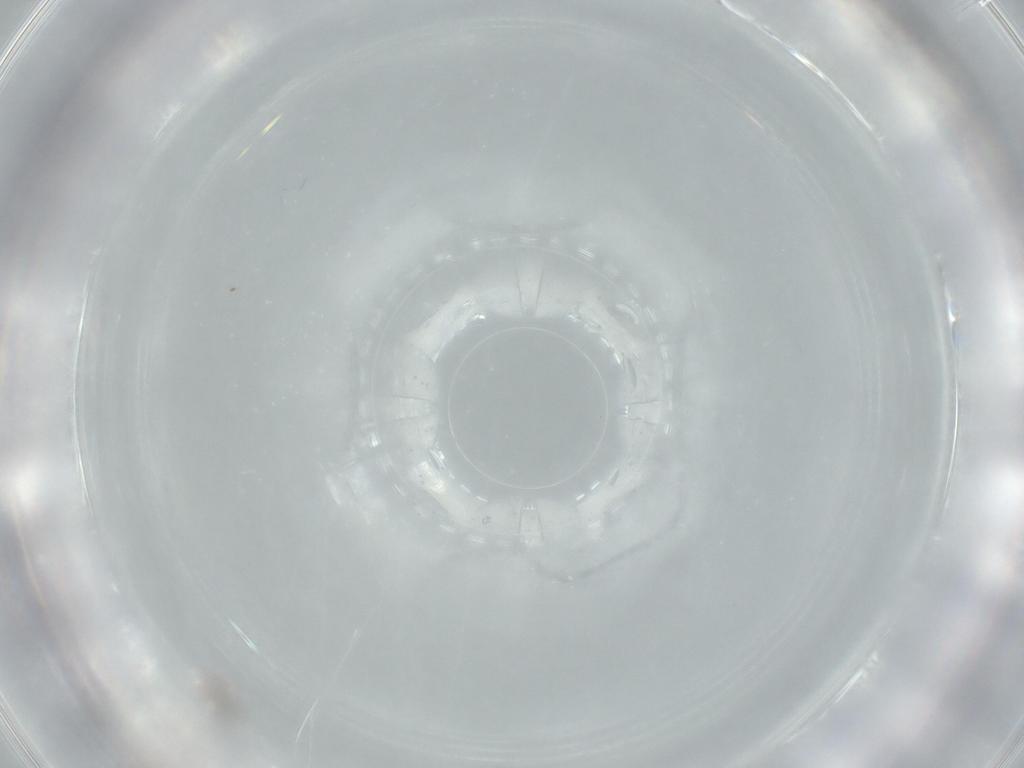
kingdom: Animalia
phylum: Arthropoda
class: Insecta
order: Thysanoptera
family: Phlaeothripidae
